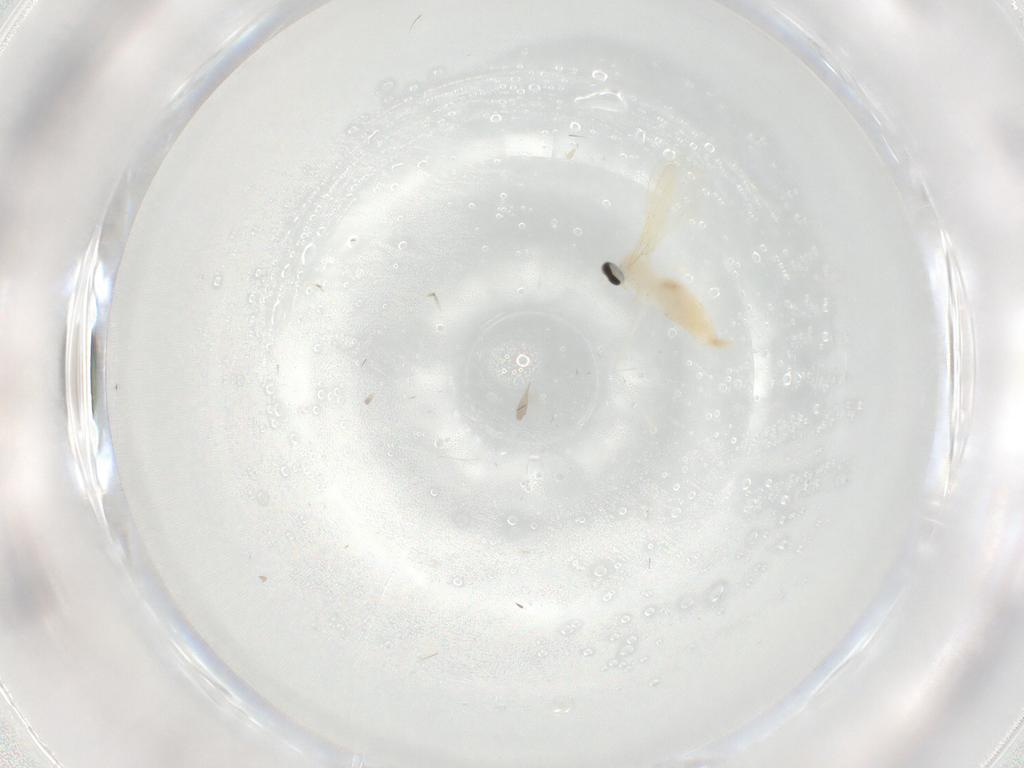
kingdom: Animalia
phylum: Arthropoda
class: Insecta
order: Diptera
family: Cecidomyiidae
